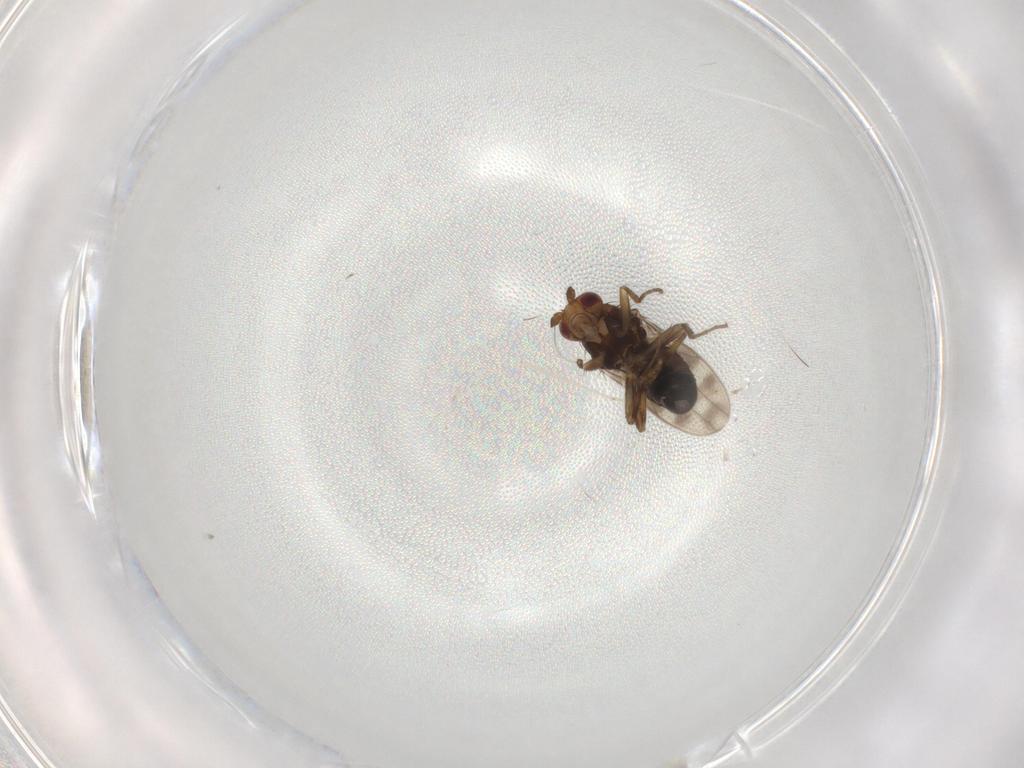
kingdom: Animalia
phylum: Arthropoda
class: Insecta
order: Diptera
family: Sphaeroceridae
